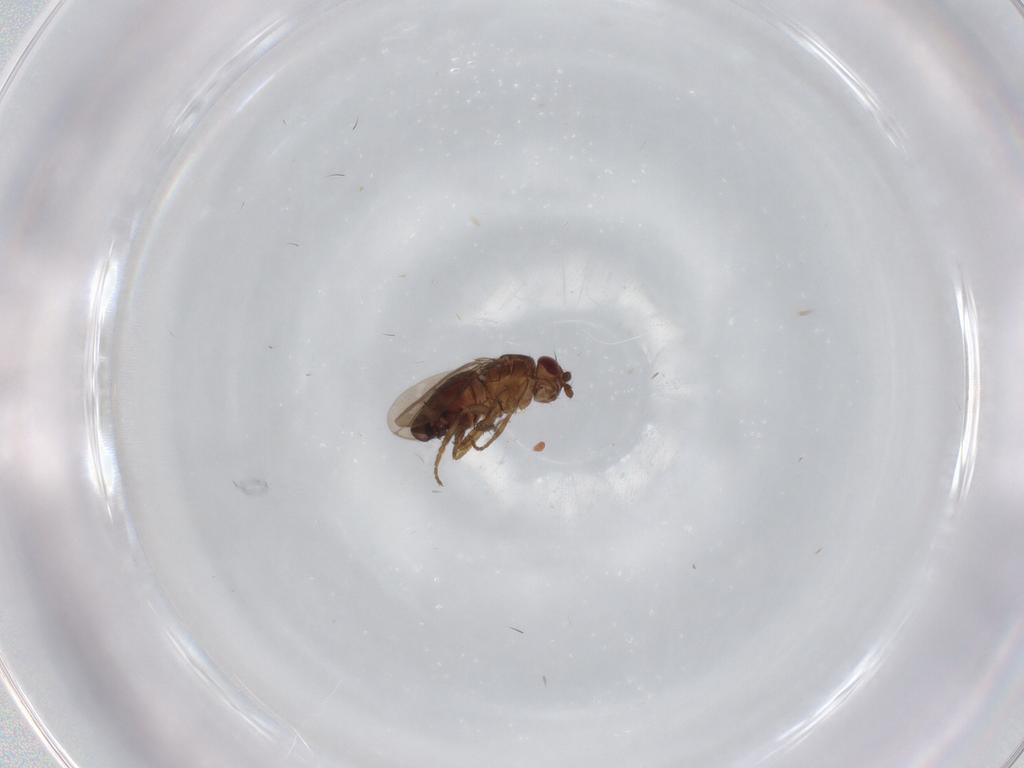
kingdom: Animalia
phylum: Arthropoda
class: Insecta
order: Diptera
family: Sphaeroceridae
